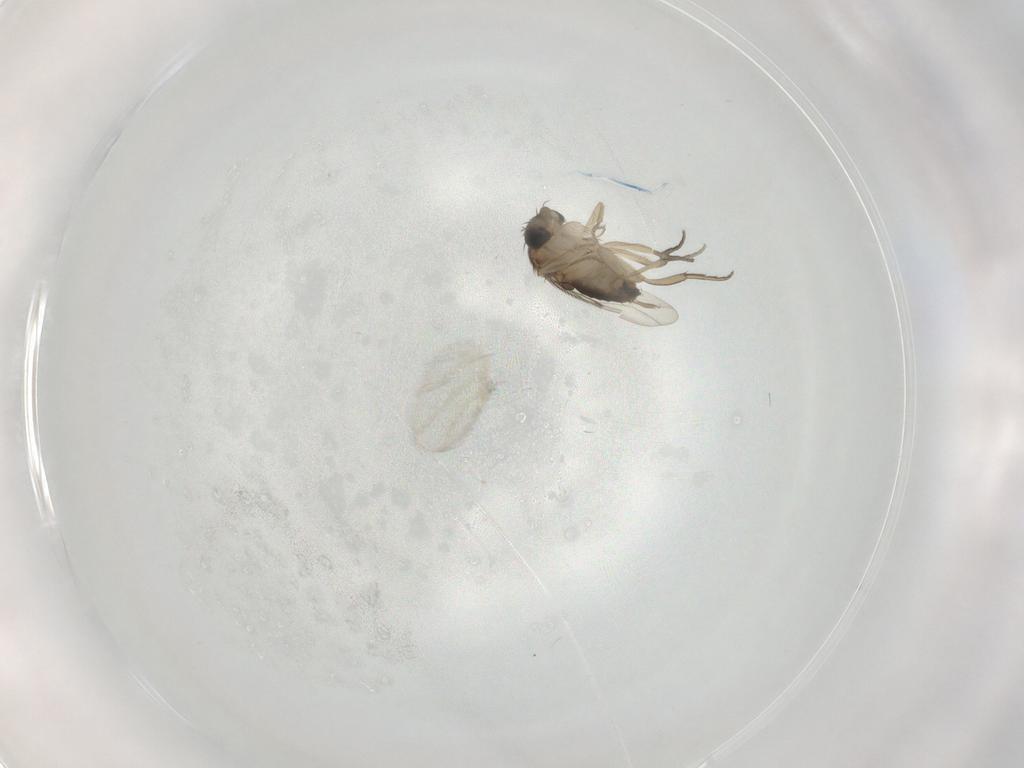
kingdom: Animalia
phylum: Arthropoda
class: Insecta
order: Diptera
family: Phoridae
